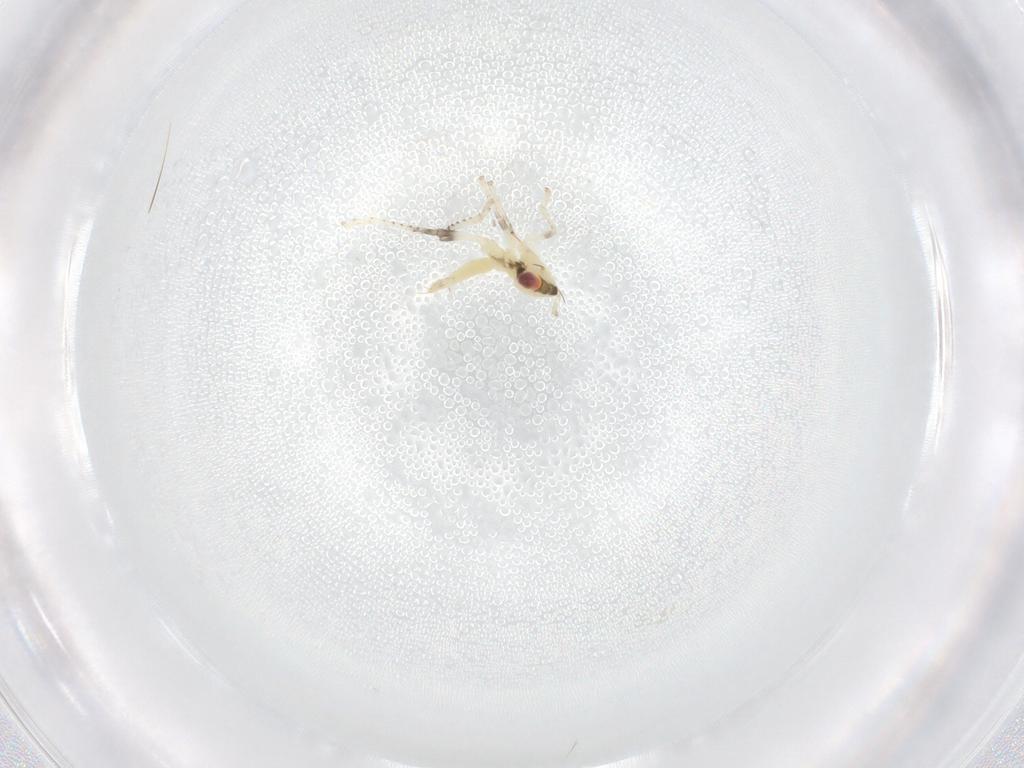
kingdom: Animalia
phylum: Arthropoda
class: Insecta
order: Hemiptera
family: Cicadellidae
